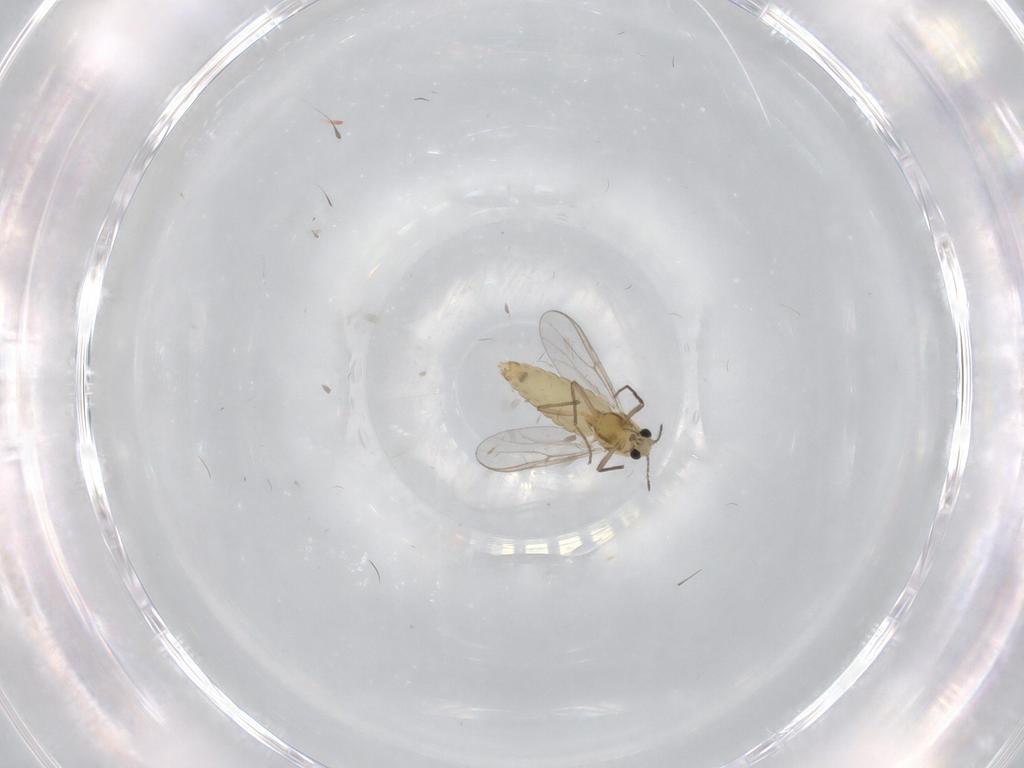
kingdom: Animalia
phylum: Arthropoda
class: Insecta
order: Diptera
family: Chironomidae
